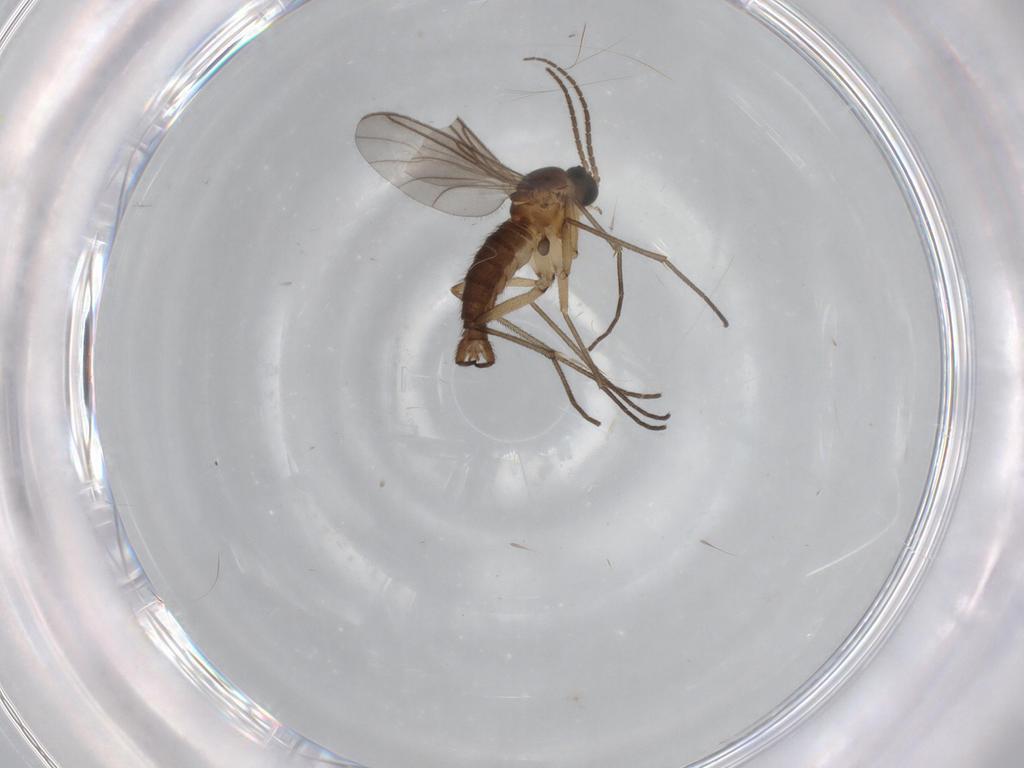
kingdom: Animalia
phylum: Arthropoda
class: Insecta
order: Diptera
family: Sciaridae
